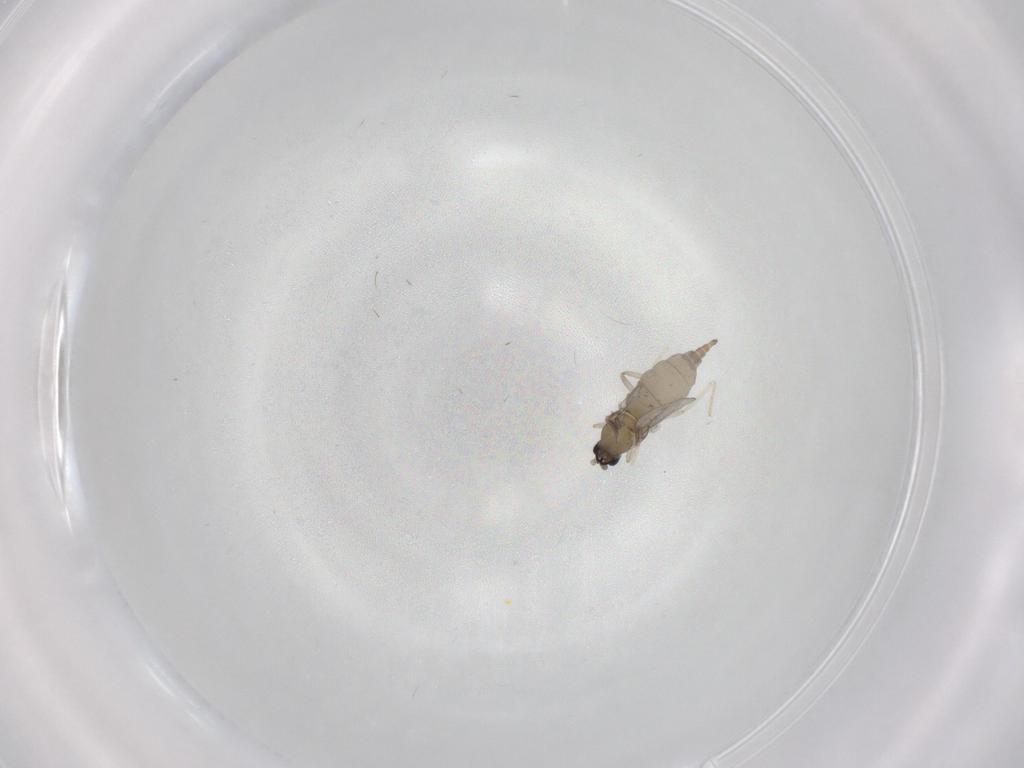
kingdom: Animalia
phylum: Arthropoda
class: Insecta
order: Diptera
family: Cecidomyiidae
